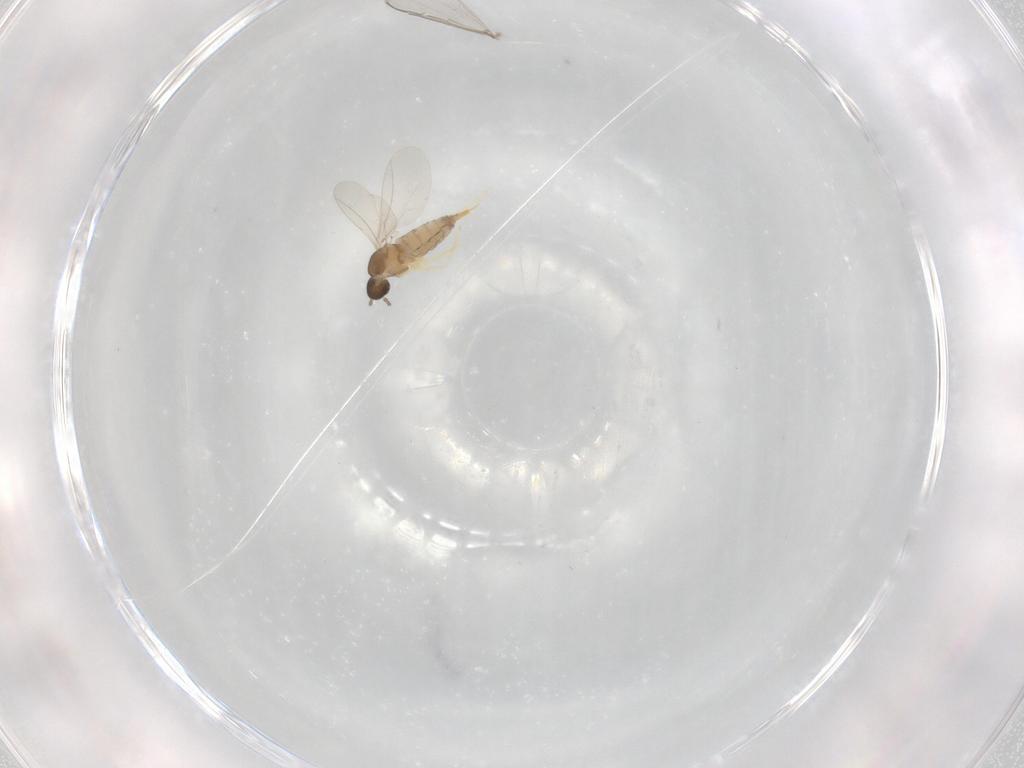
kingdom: Animalia
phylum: Arthropoda
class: Insecta
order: Diptera
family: Cecidomyiidae
